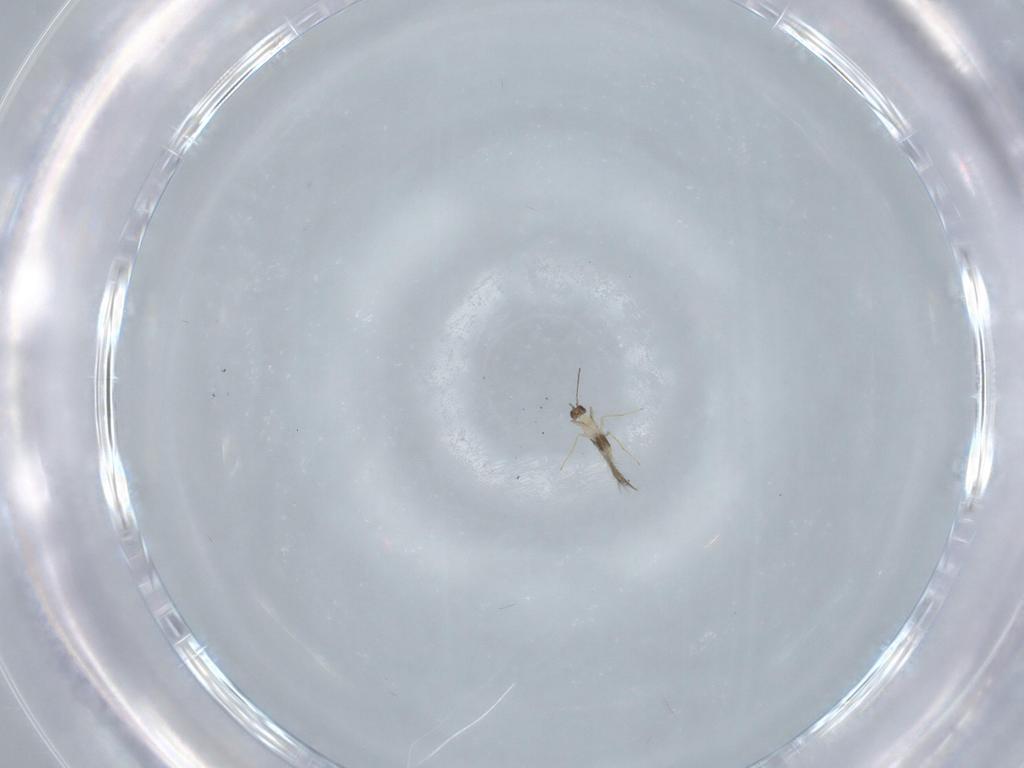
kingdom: Animalia
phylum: Arthropoda
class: Insecta
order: Hymenoptera
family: Mymaridae
